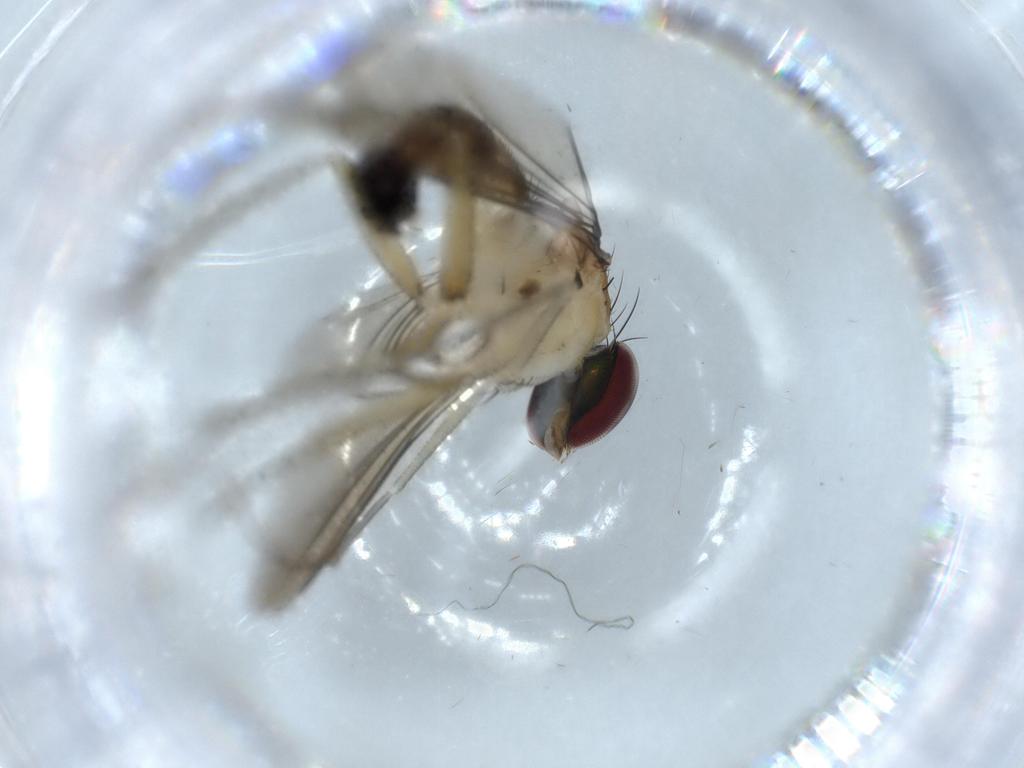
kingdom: Animalia
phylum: Arthropoda
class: Insecta
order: Diptera
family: Dolichopodidae
